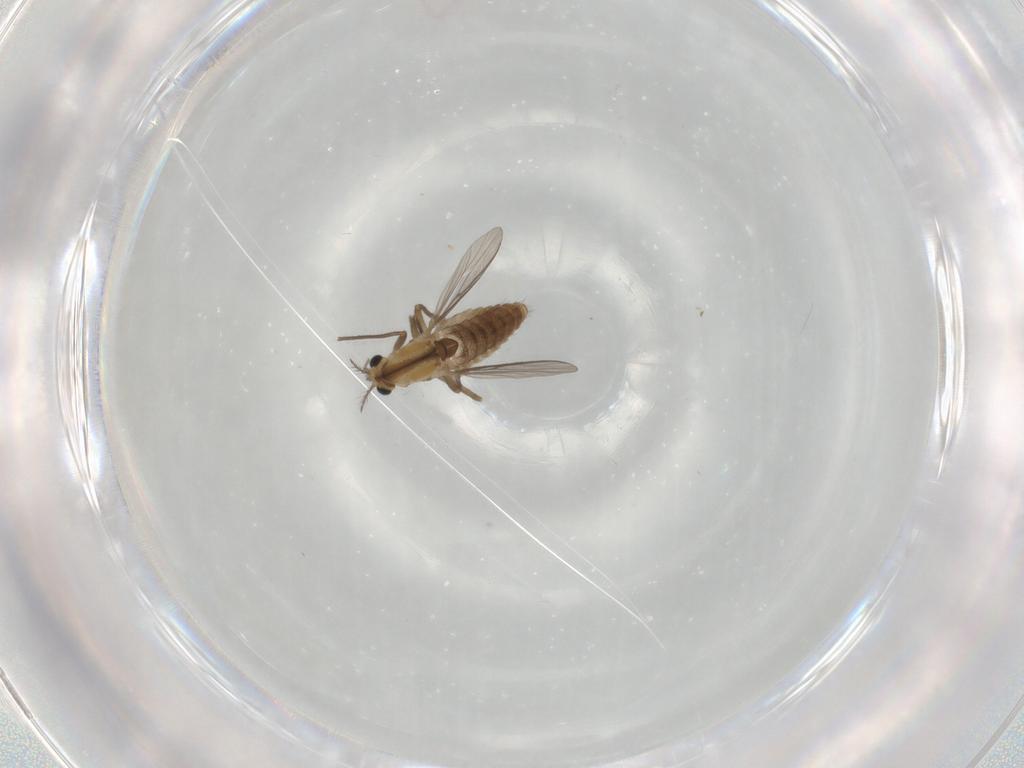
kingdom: Animalia
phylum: Arthropoda
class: Insecta
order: Diptera
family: Chironomidae
